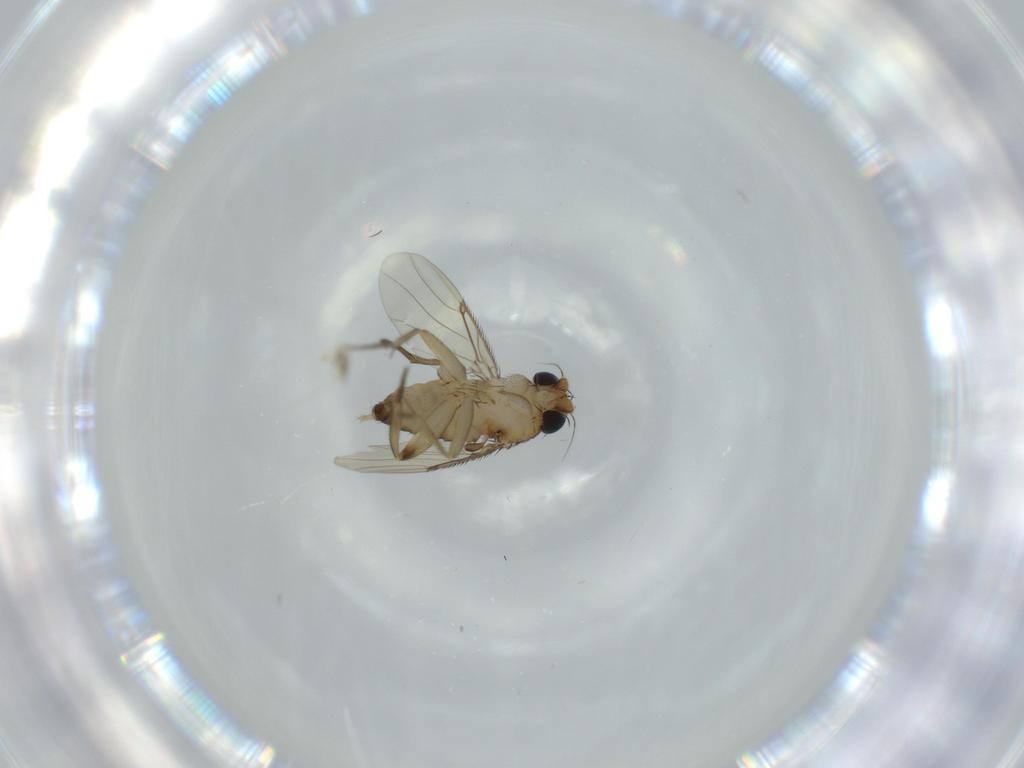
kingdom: Animalia
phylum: Arthropoda
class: Insecta
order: Diptera
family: Phoridae
